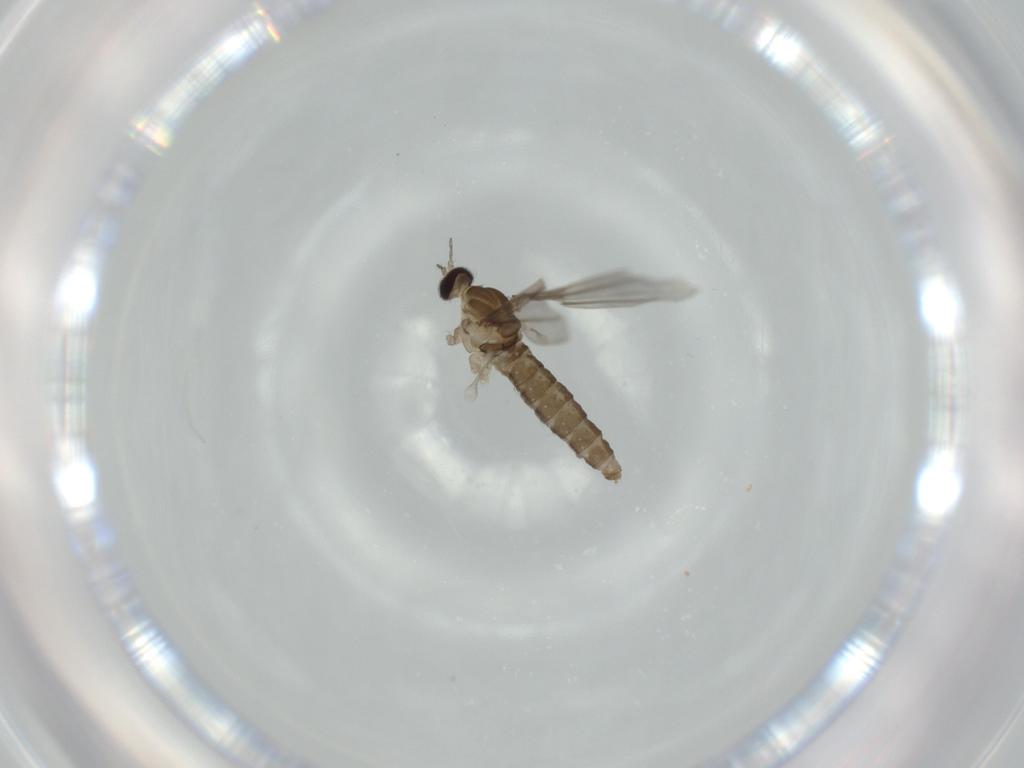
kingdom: Animalia
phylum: Arthropoda
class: Insecta
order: Diptera
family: Cecidomyiidae
